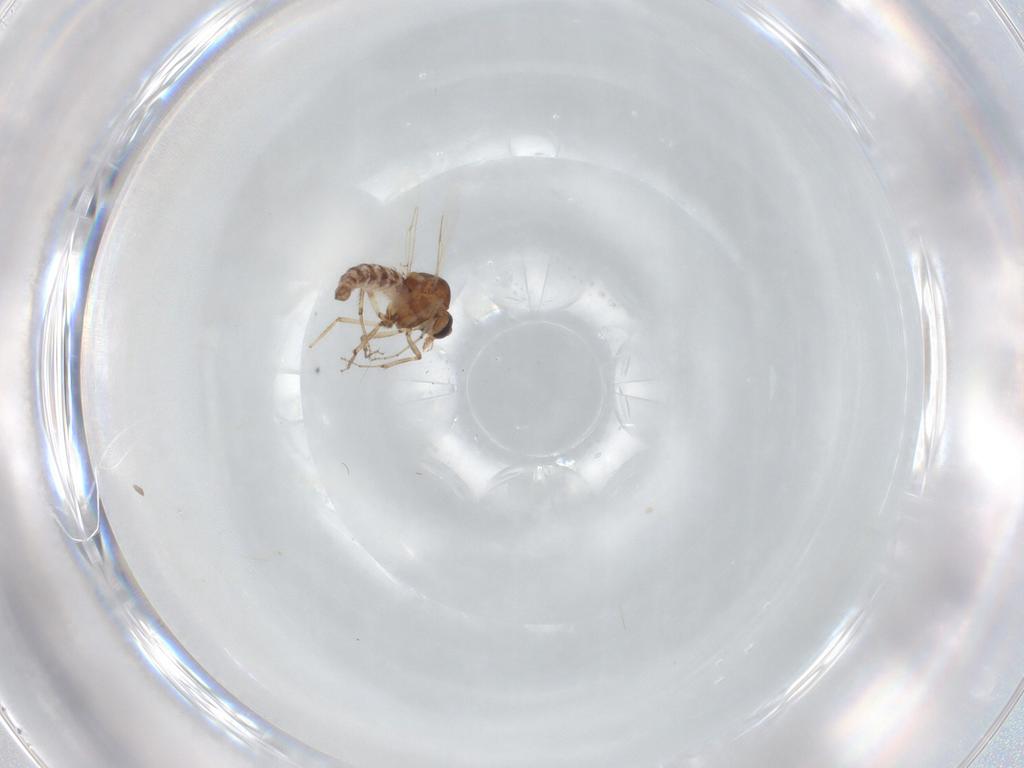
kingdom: Animalia
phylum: Arthropoda
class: Insecta
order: Diptera
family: Ceratopogonidae
